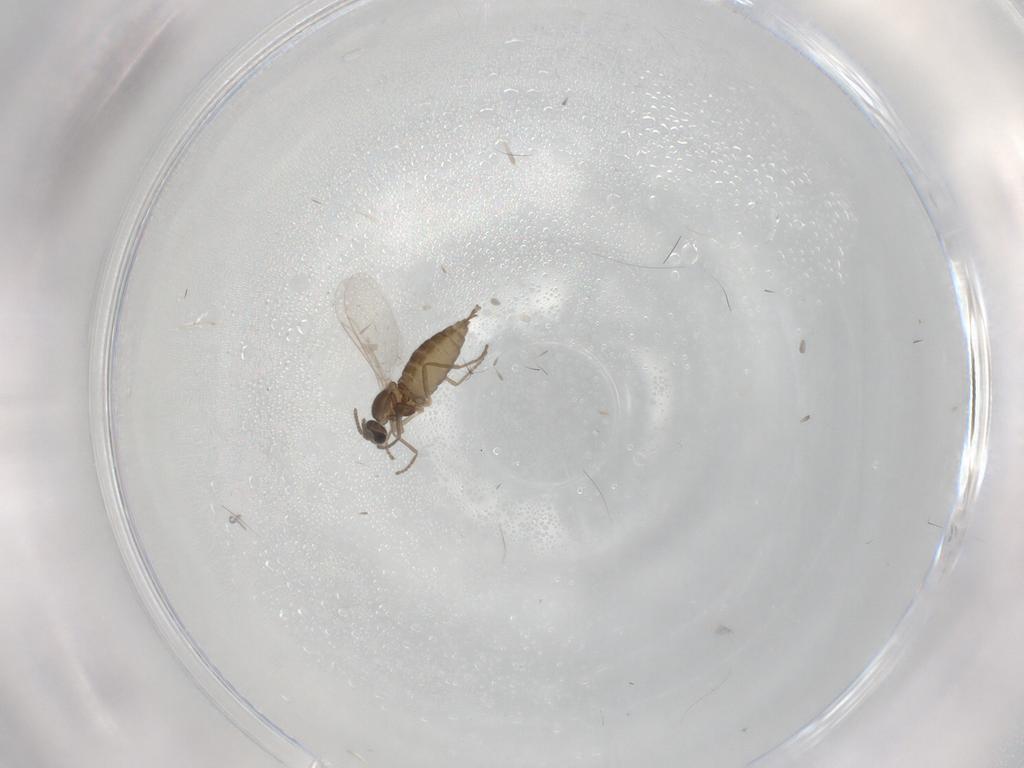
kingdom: Animalia
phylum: Arthropoda
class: Insecta
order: Diptera
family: Cecidomyiidae
